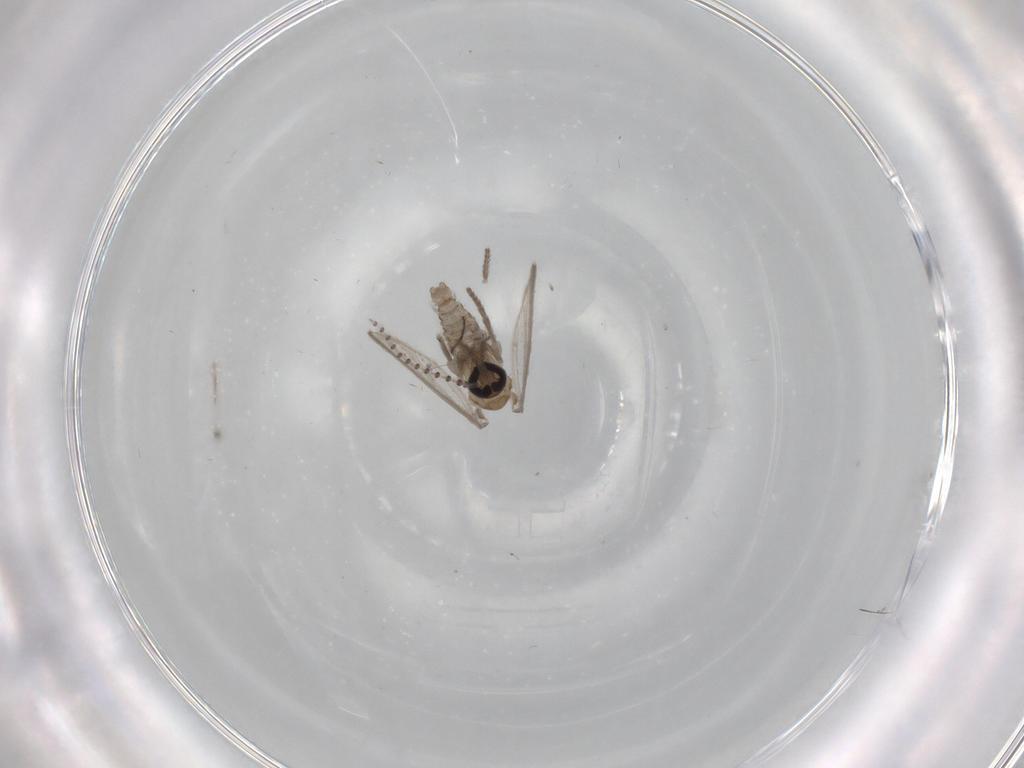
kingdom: Animalia
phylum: Arthropoda
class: Insecta
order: Diptera
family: Psychodidae
